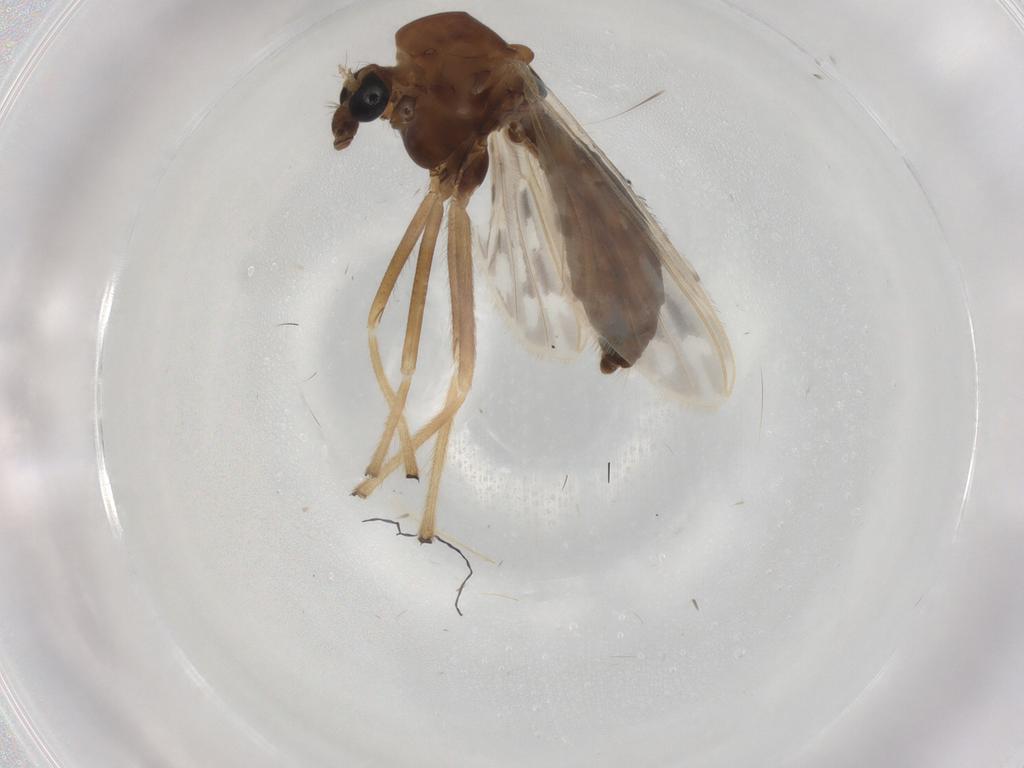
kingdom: Animalia
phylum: Arthropoda
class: Insecta
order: Diptera
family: Chironomidae
